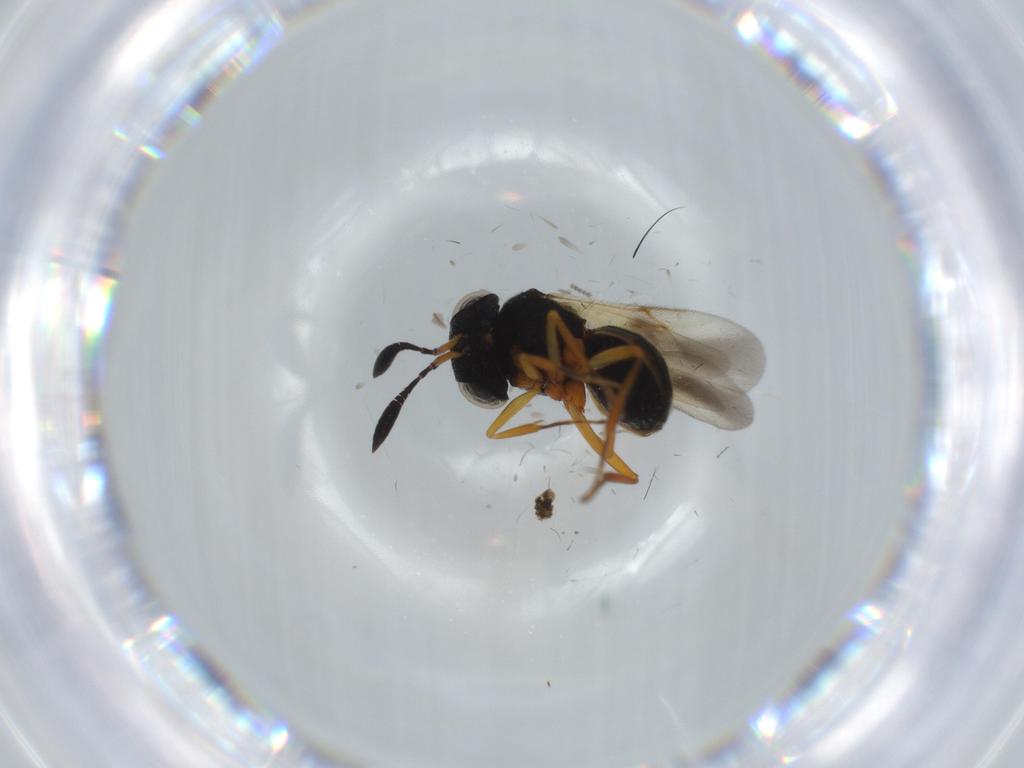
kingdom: Animalia
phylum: Arthropoda
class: Insecta
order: Hymenoptera
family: Scelionidae
